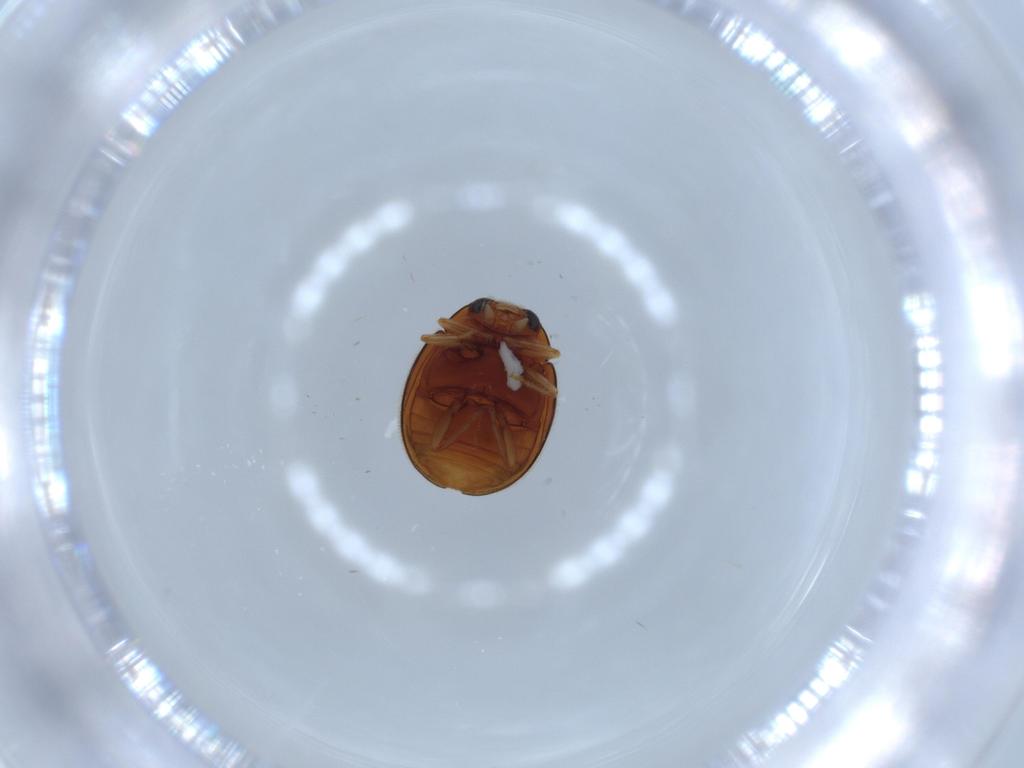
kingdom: Animalia
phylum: Arthropoda
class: Insecta
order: Coleoptera
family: Coccinellidae
